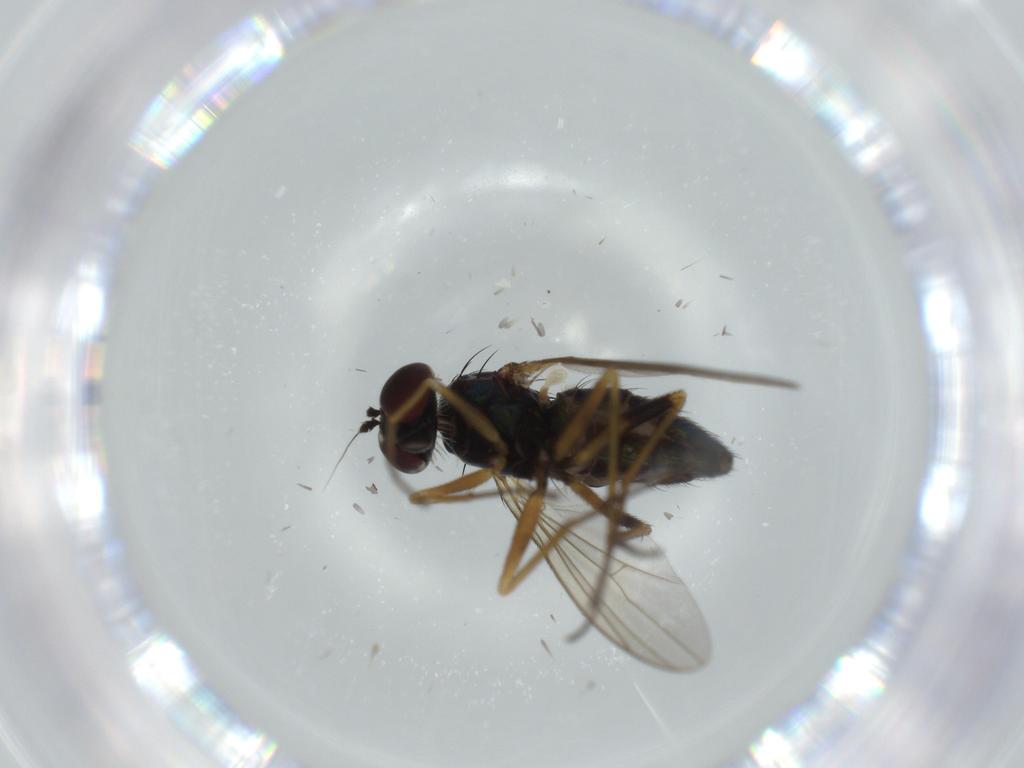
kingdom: Animalia
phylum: Arthropoda
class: Insecta
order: Diptera
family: Dolichopodidae
